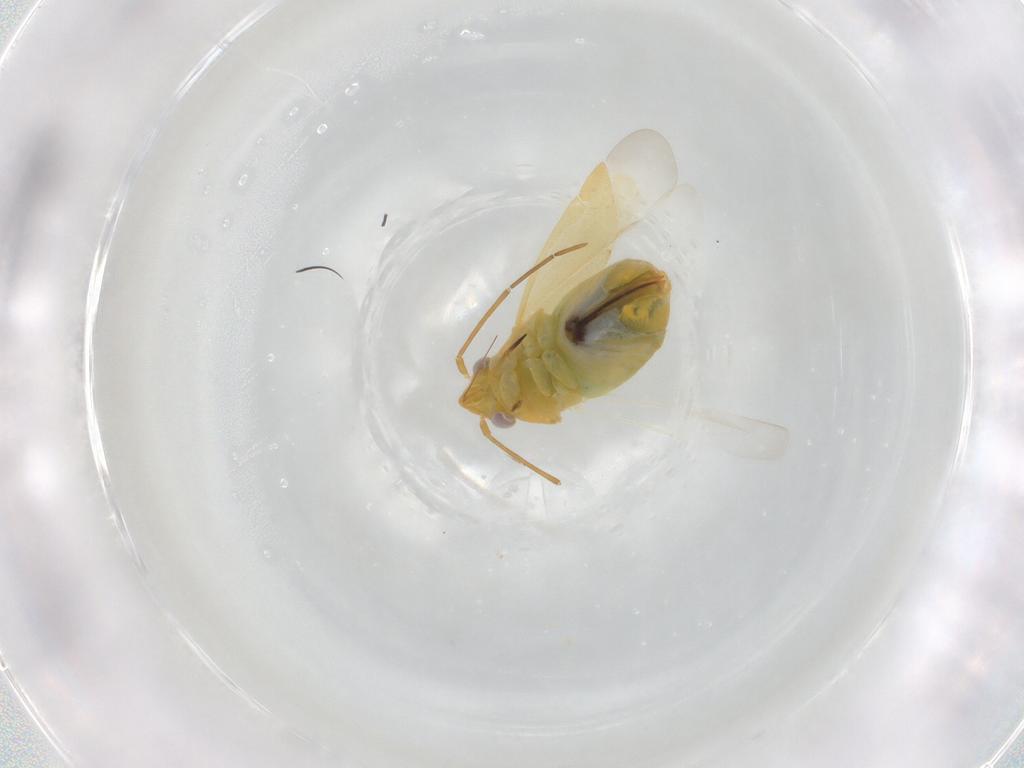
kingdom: Animalia
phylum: Arthropoda
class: Insecta
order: Hemiptera
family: Miridae
